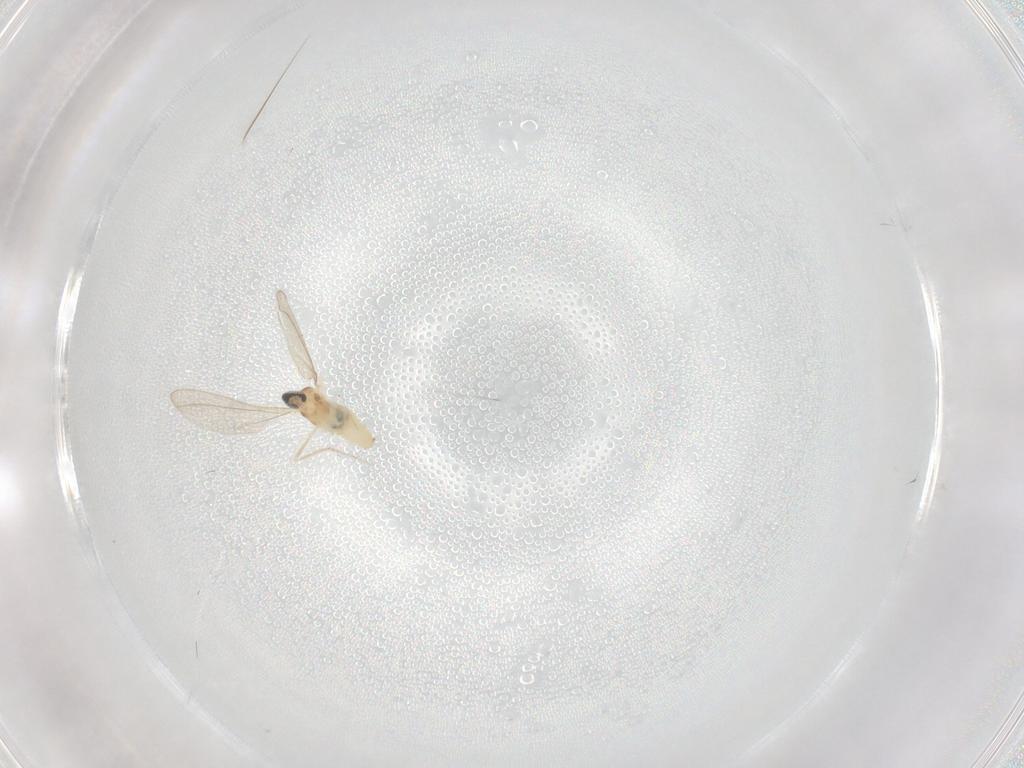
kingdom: Animalia
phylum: Arthropoda
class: Insecta
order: Diptera
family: Cecidomyiidae
